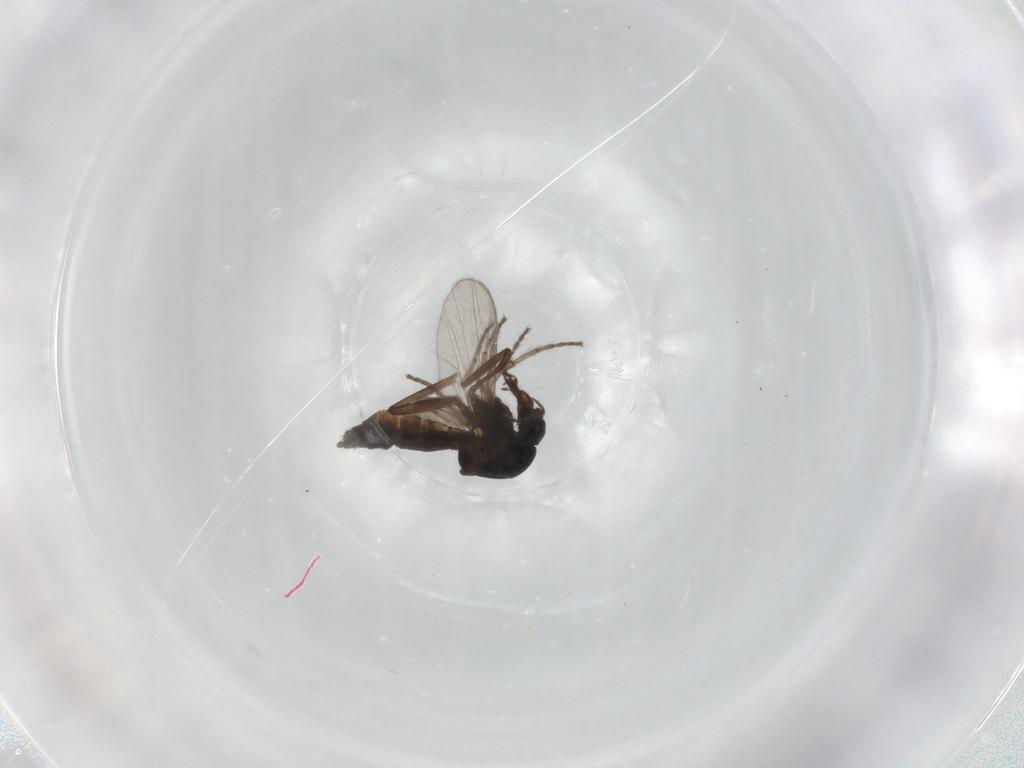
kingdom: Animalia
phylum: Arthropoda
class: Insecta
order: Diptera
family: Ceratopogonidae
